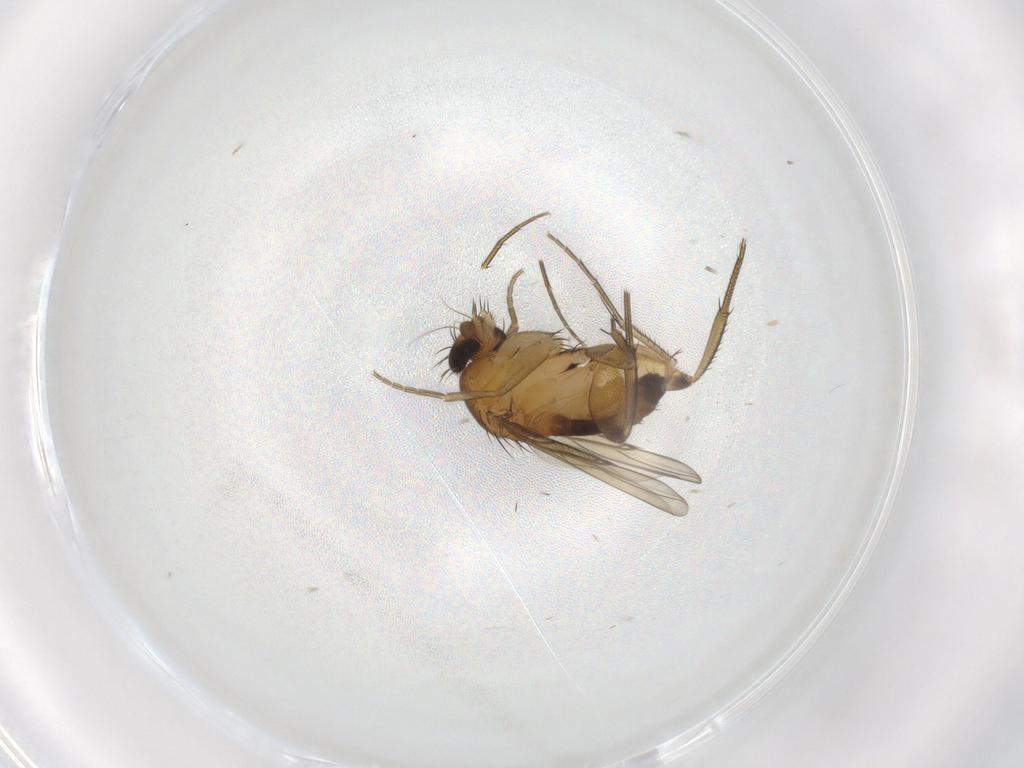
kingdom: Animalia
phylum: Arthropoda
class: Insecta
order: Diptera
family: Phoridae
